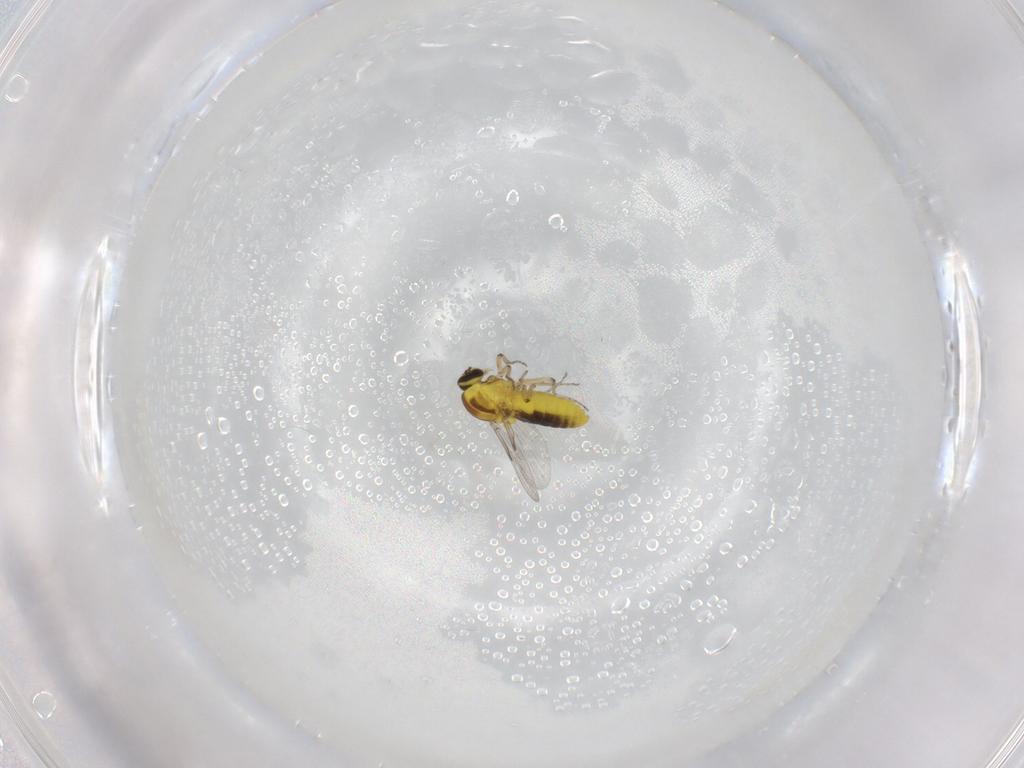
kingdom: Animalia
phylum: Arthropoda
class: Insecta
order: Diptera
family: Ceratopogonidae
